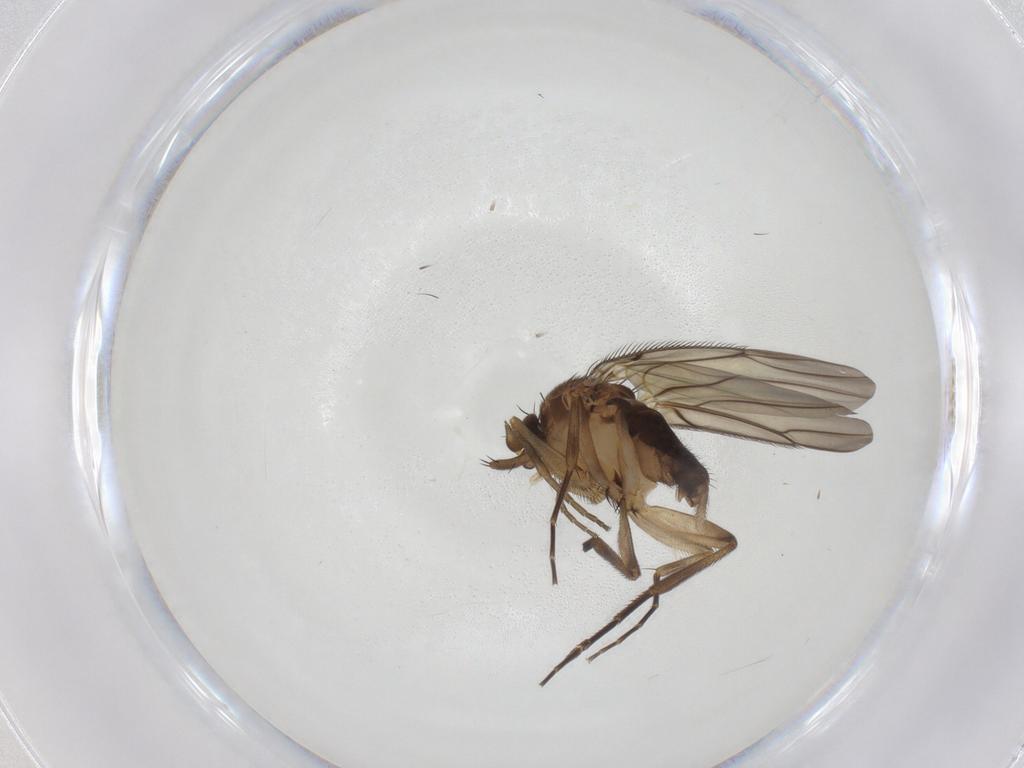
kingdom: Animalia
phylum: Arthropoda
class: Insecta
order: Diptera
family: Phoridae
